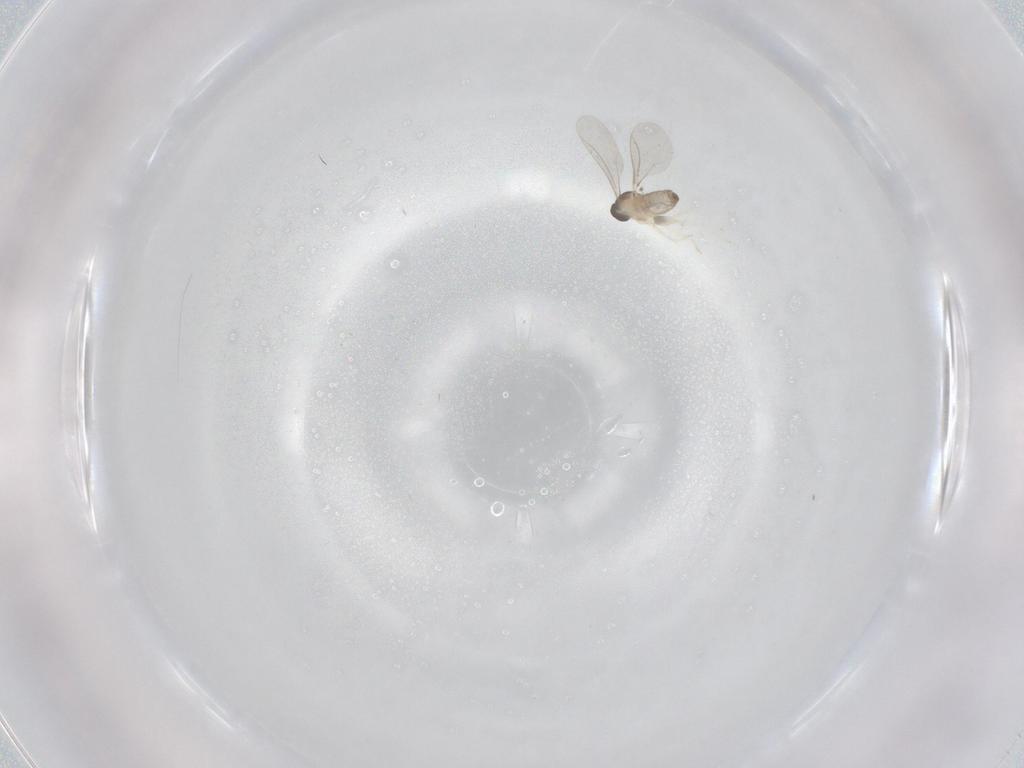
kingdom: Animalia
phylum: Arthropoda
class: Insecta
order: Diptera
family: Cecidomyiidae
